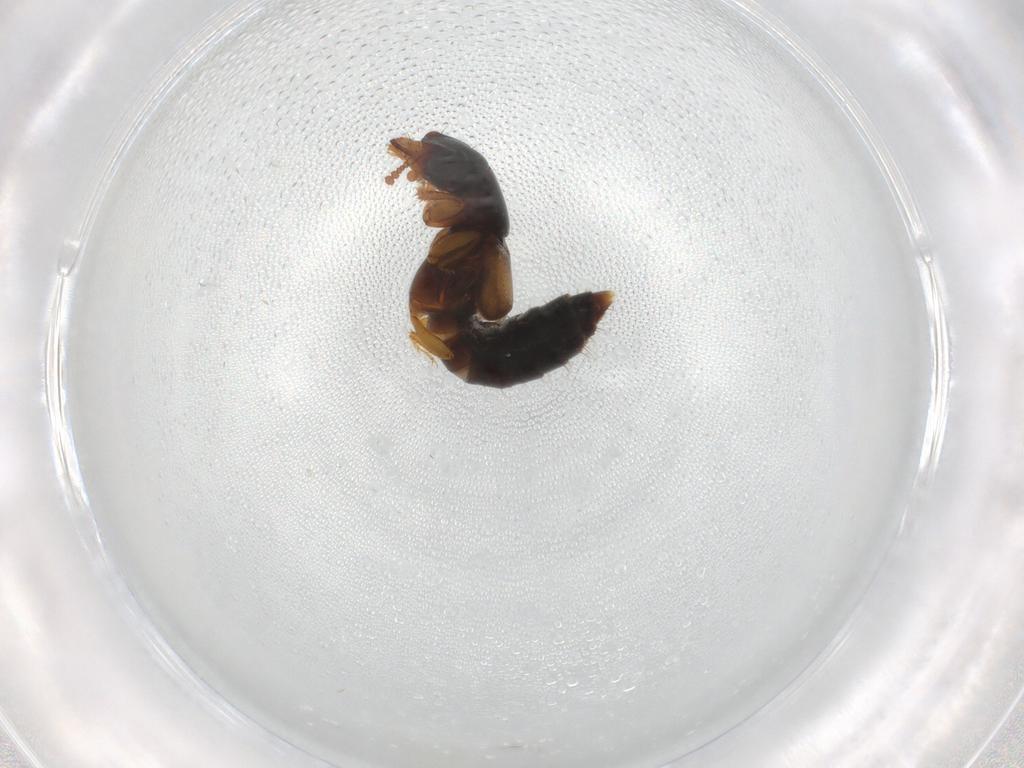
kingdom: Animalia
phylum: Arthropoda
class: Insecta
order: Coleoptera
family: Staphylinidae
